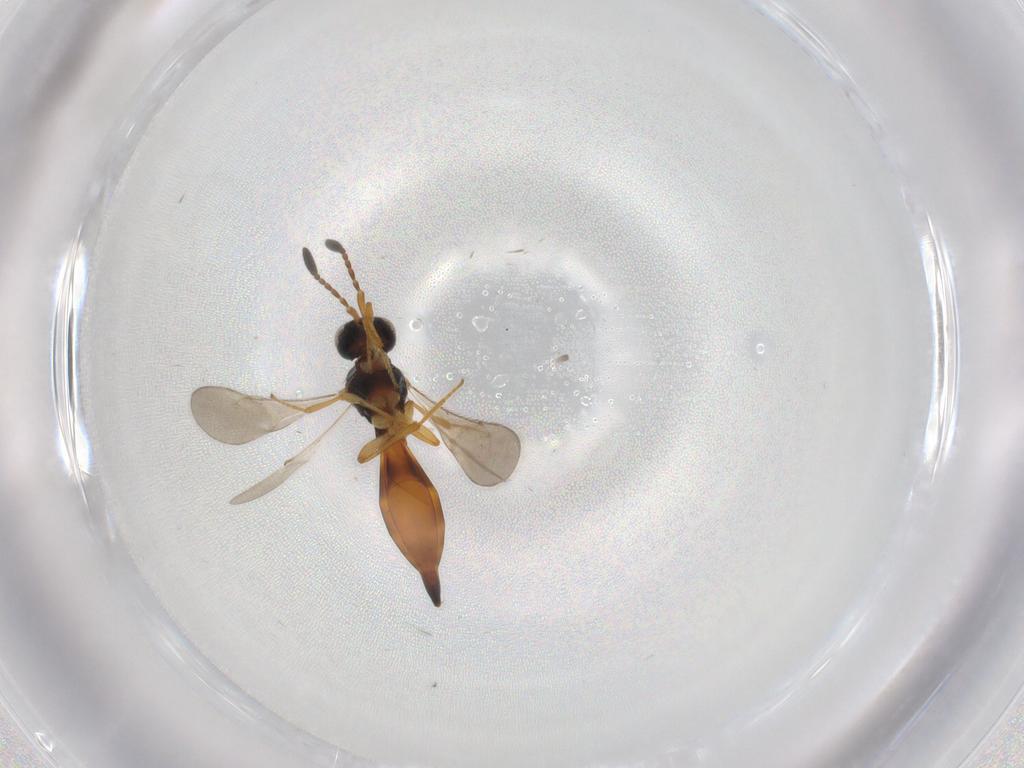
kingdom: Animalia
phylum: Arthropoda
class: Insecta
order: Hymenoptera
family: Scelionidae
